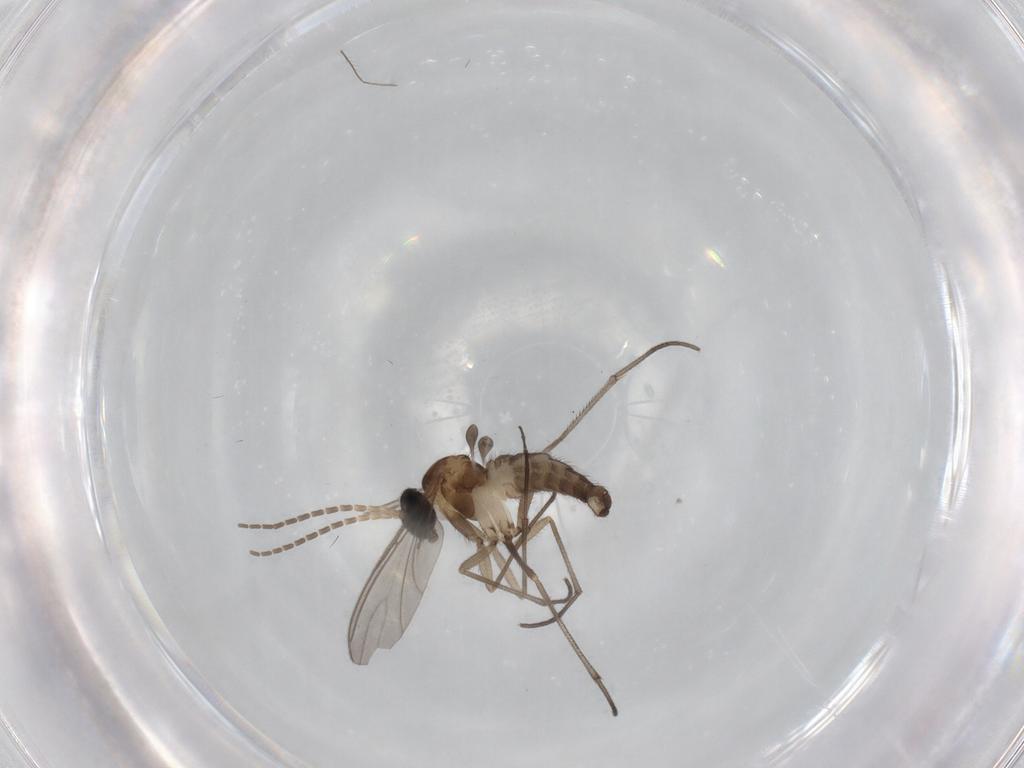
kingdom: Animalia
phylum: Arthropoda
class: Insecta
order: Diptera
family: Sciaridae
